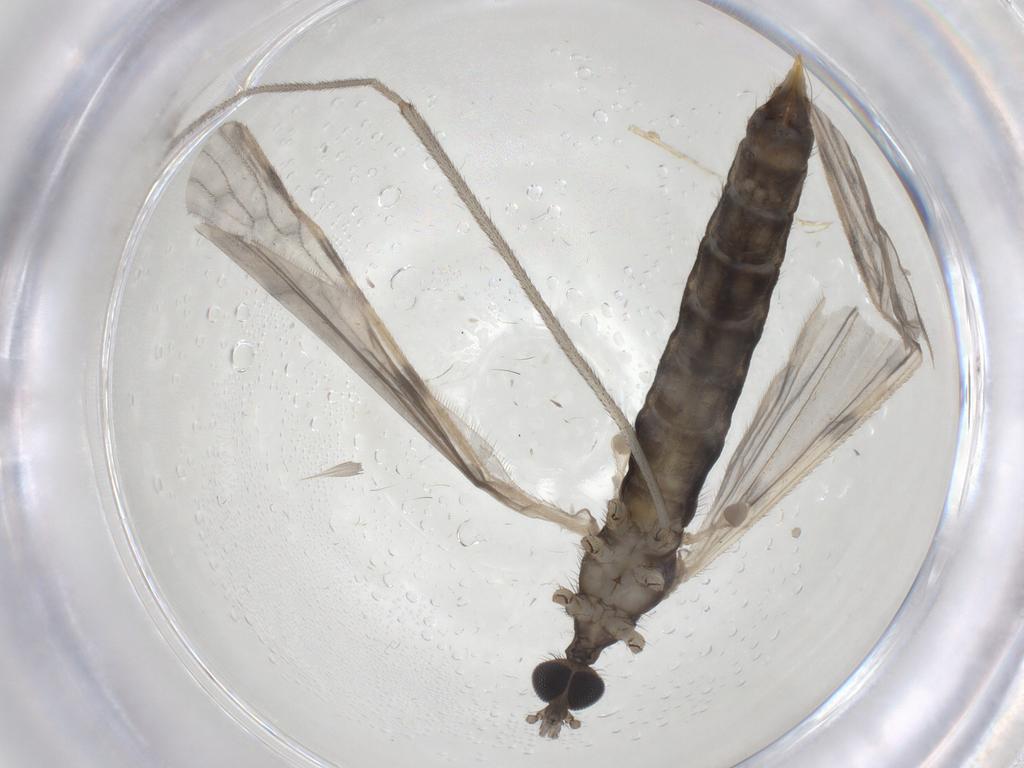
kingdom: Animalia
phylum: Arthropoda
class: Insecta
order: Diptera
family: Limoniidae
